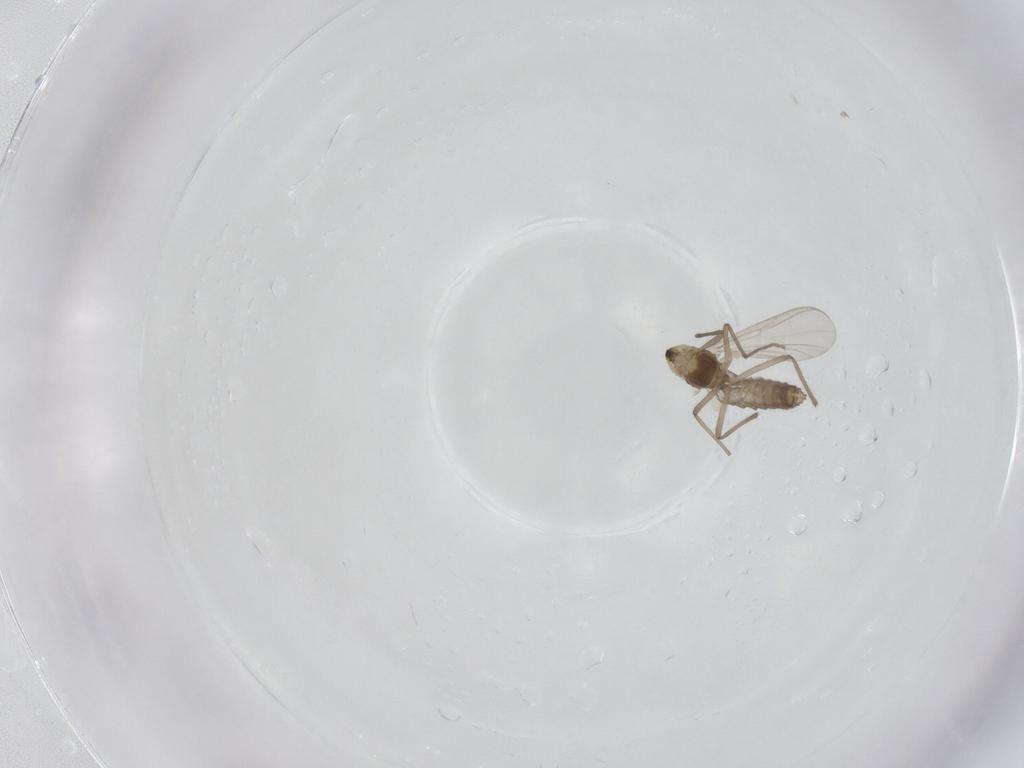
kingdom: Animalia
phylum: Arthropoda
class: Insecta
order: Diptera
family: Chironomidae
